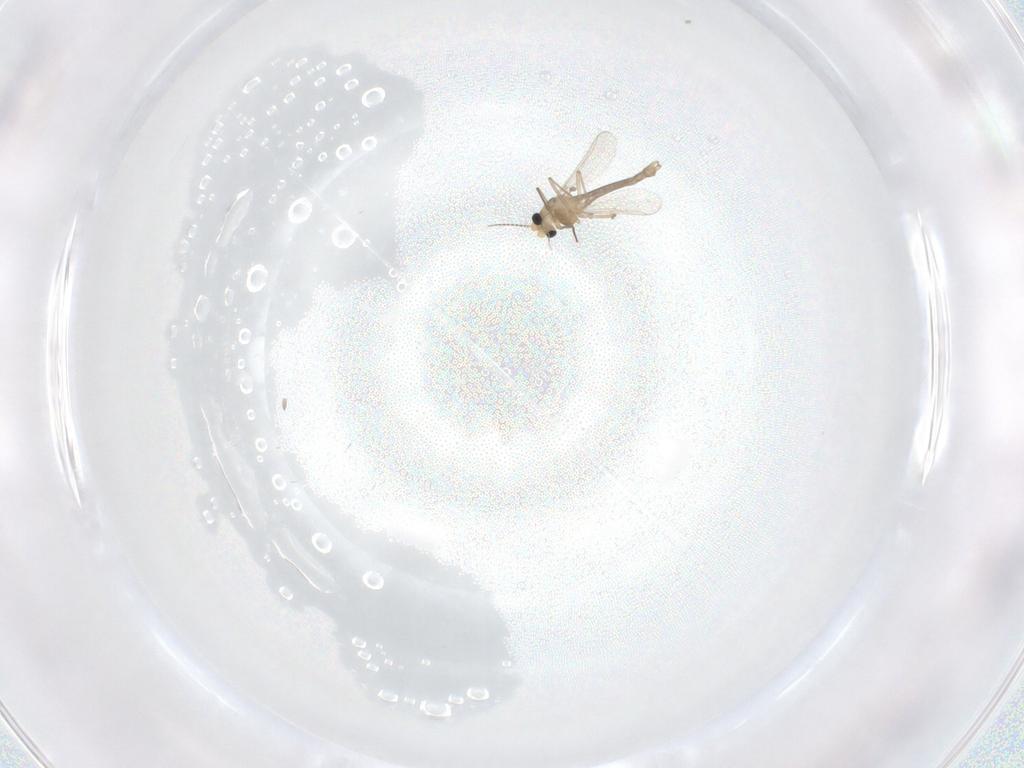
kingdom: Animalia
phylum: Arthropoda
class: Insecta
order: Diptera
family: Chironomidae
